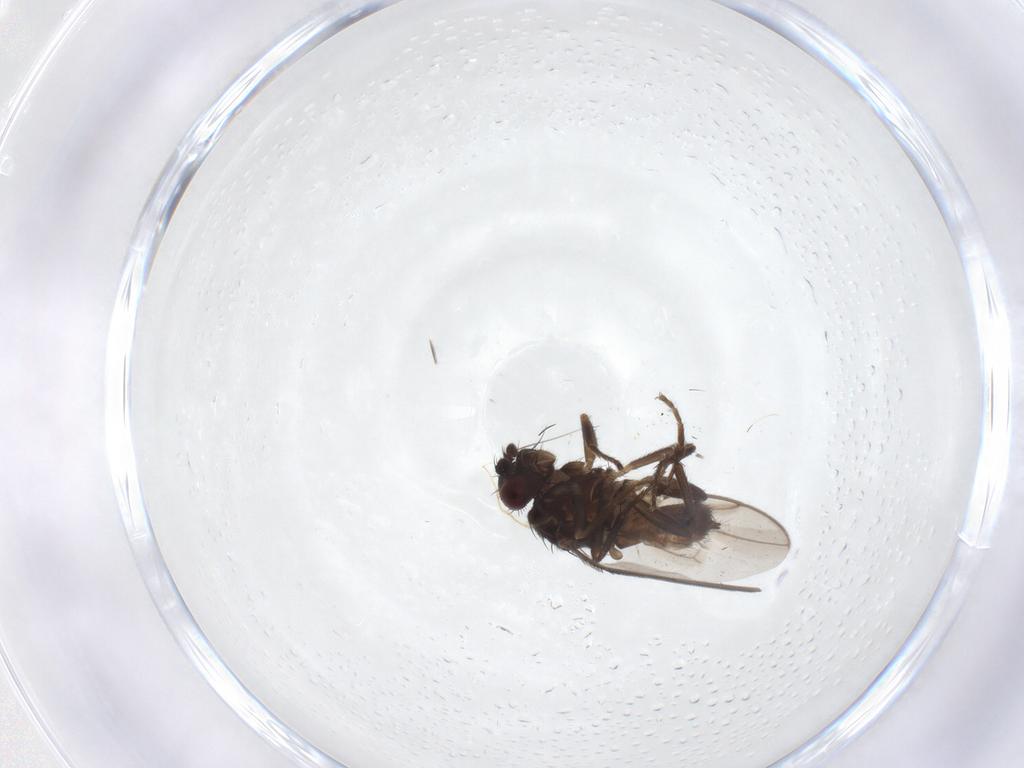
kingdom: Animalia
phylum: Arthropoda
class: Insecta
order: Diptera
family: Sphaeroceridae
